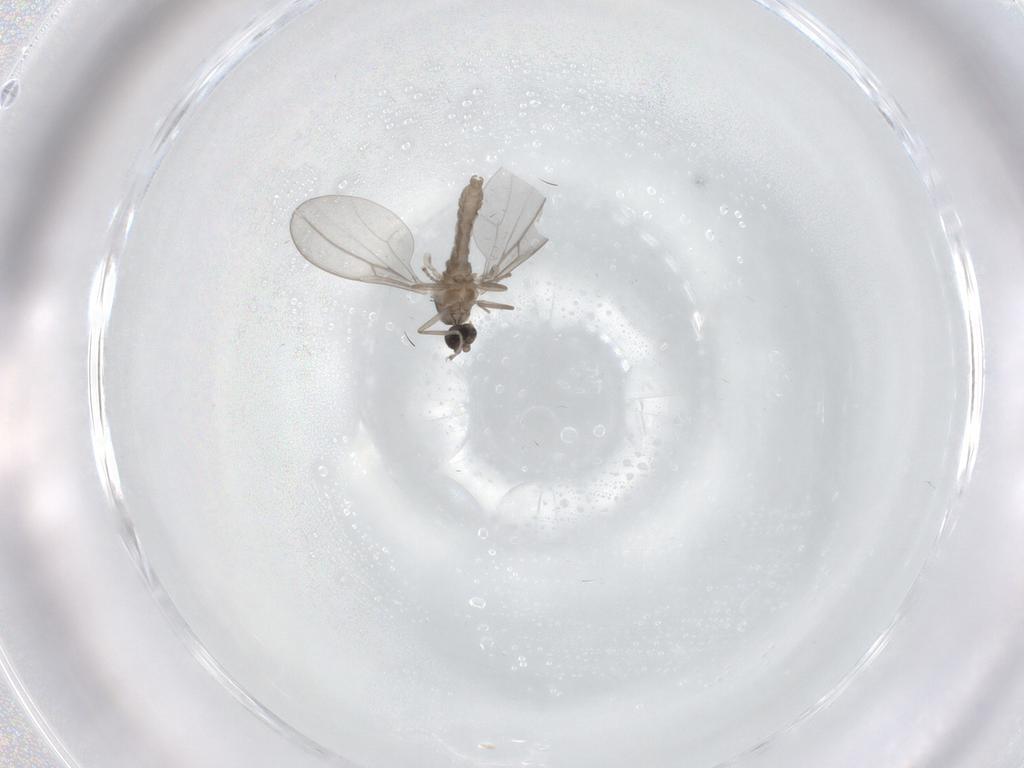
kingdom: Animalia
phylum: Arthropoda
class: Insecta
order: Diptera
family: Cecidomyiidae
